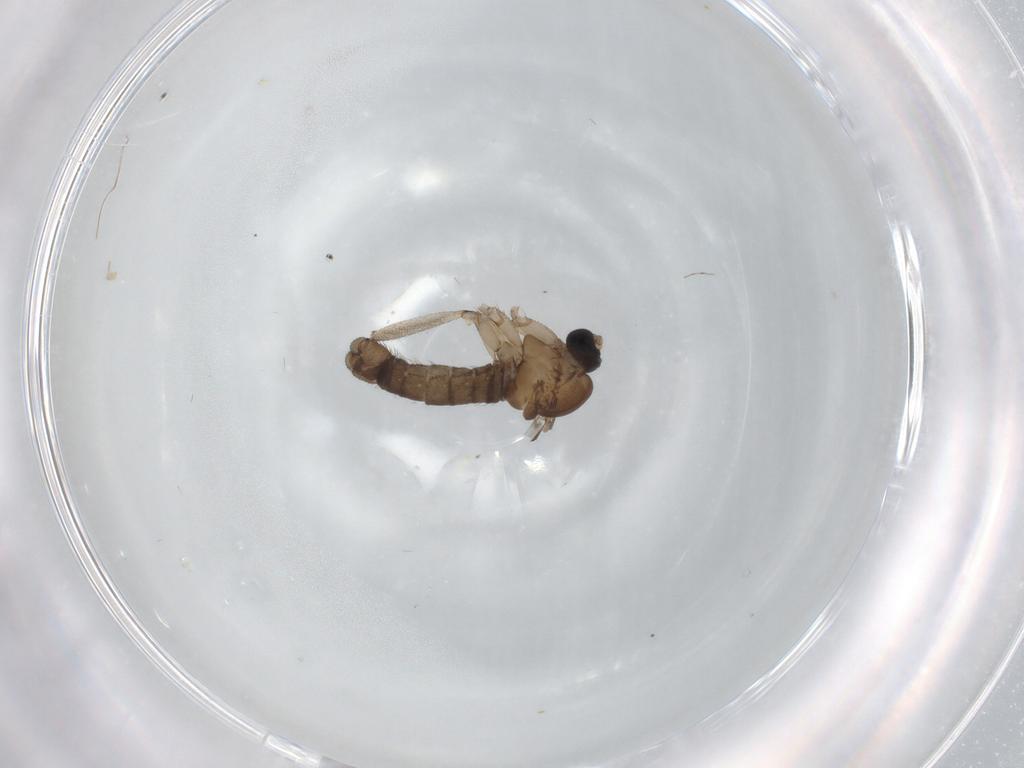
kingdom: Animalia
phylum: Arthropoda
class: Insecta
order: Diptera
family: Sciaridae
